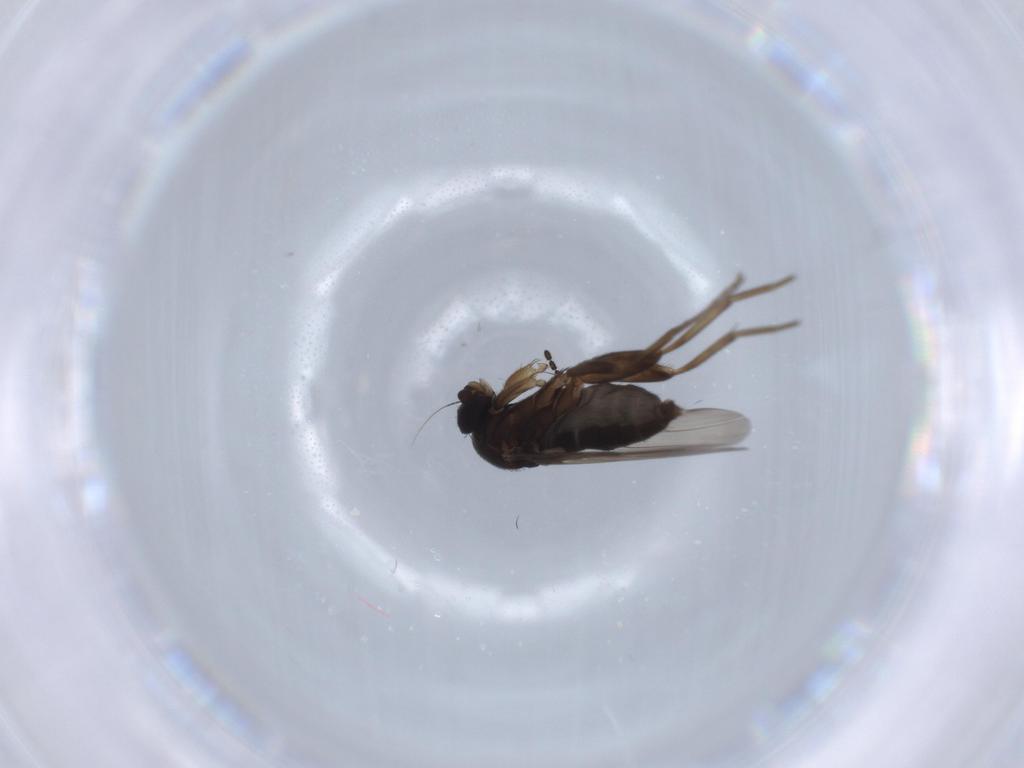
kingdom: Animalia
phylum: Arthropoda
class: Insecta
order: Diptera
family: Phoridae
